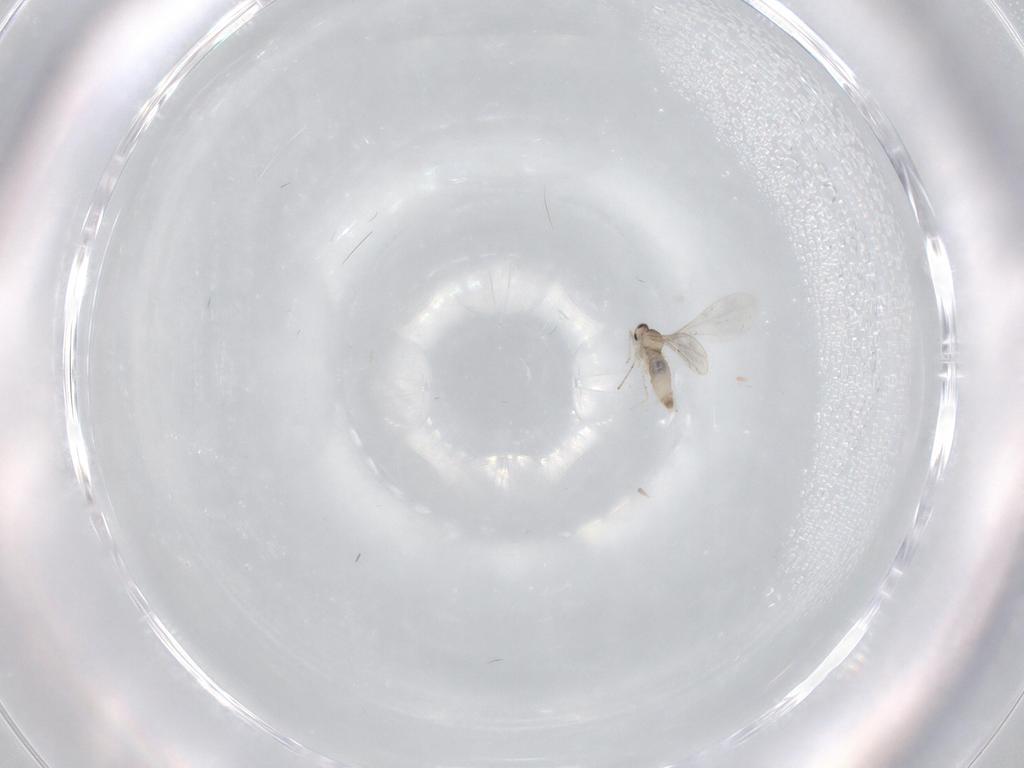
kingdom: Animalia
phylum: Arthropoda
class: Insecta
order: Diptera
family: Cecidomyiidae
